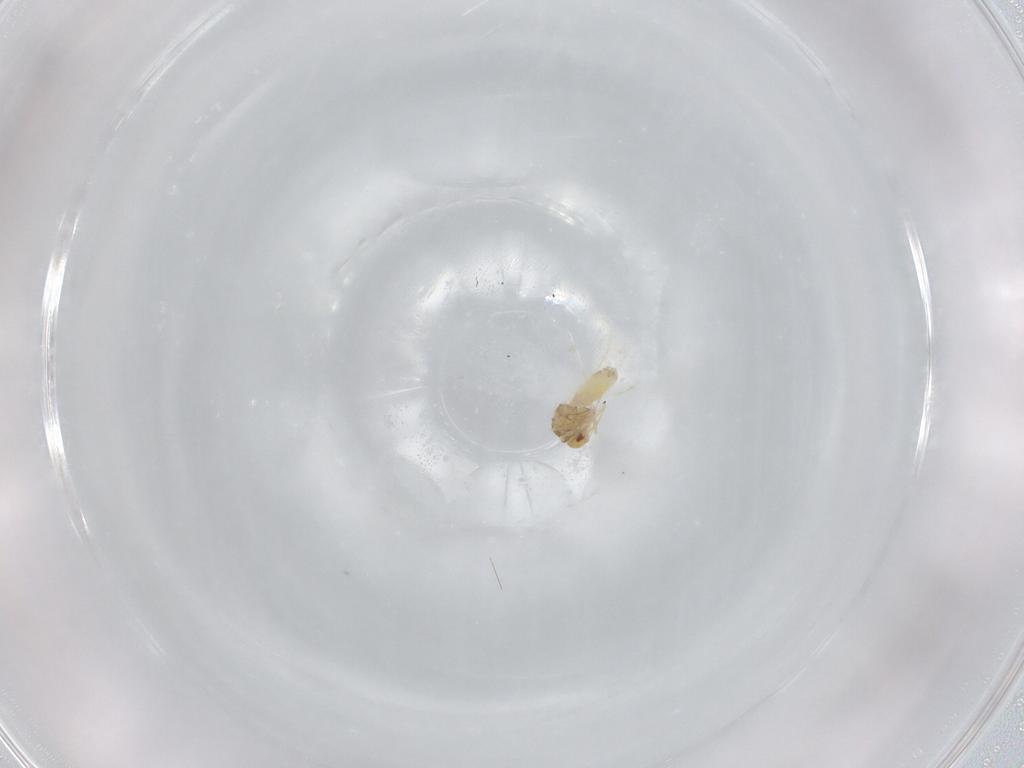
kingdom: Animalia
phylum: Arthropoda
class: Insecta
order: Hemiptera
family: Aleyrodidae
